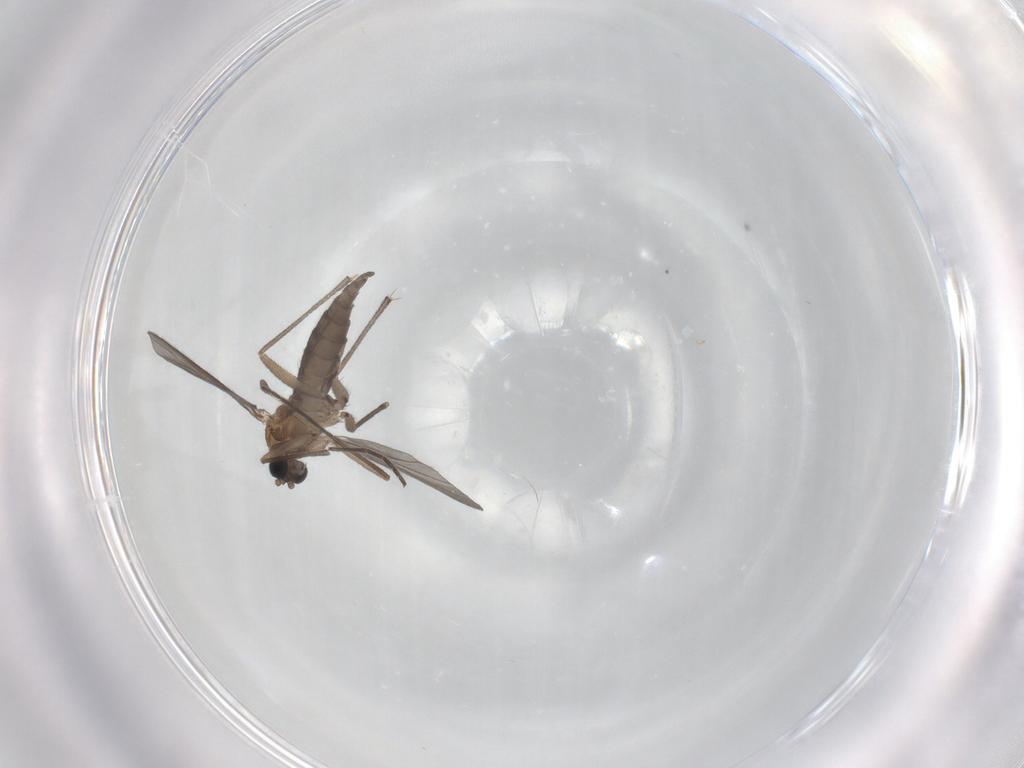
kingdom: Animalia
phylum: Arthropoda
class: Insecta
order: Diptera
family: Sciaridae
